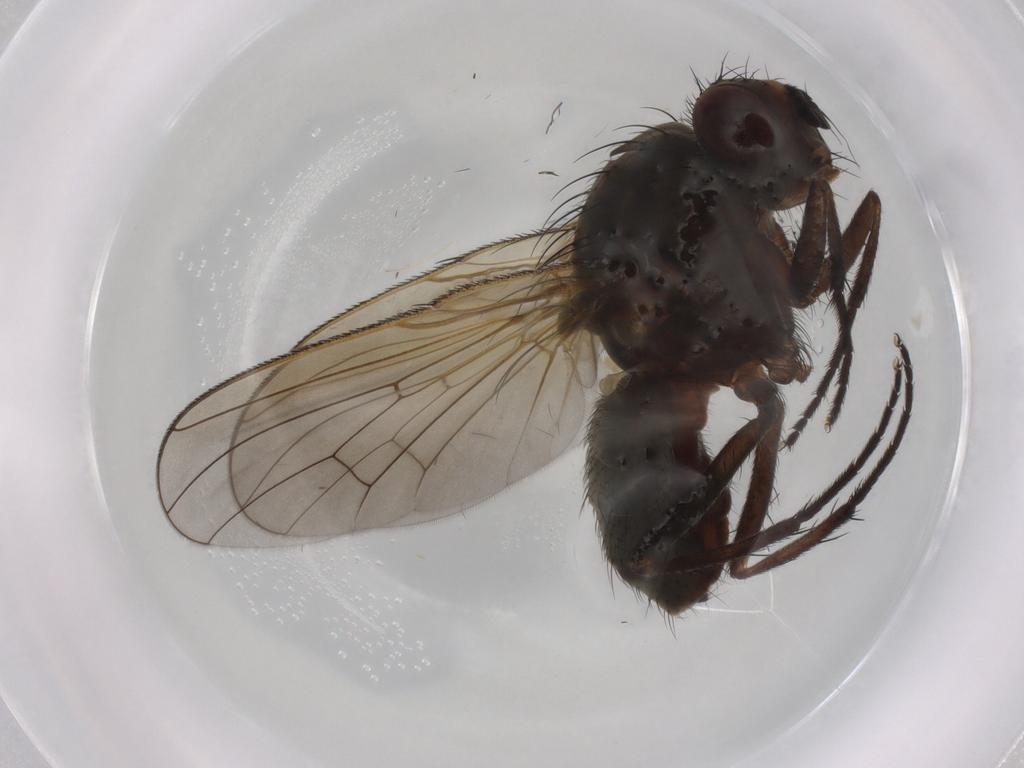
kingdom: Animalia
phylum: Arthropoda
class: Insecta
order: Diptera
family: Anthomyiidae
